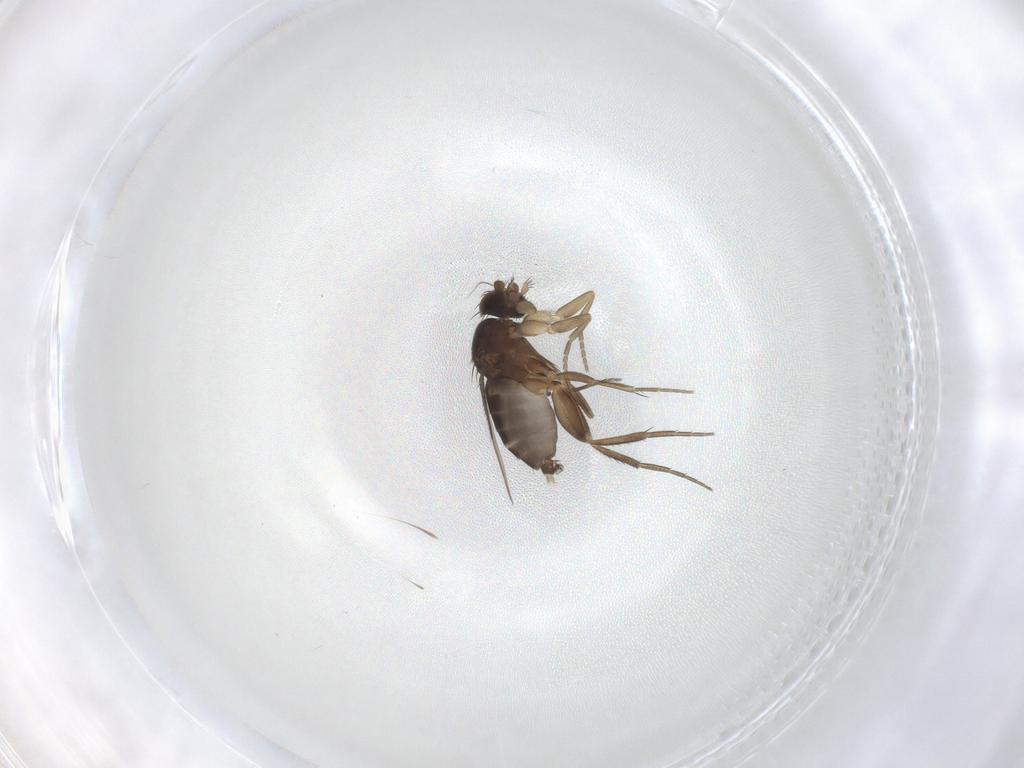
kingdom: Animalia
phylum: Arthropoda
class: Insecta
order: Diptera
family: Phoridae
